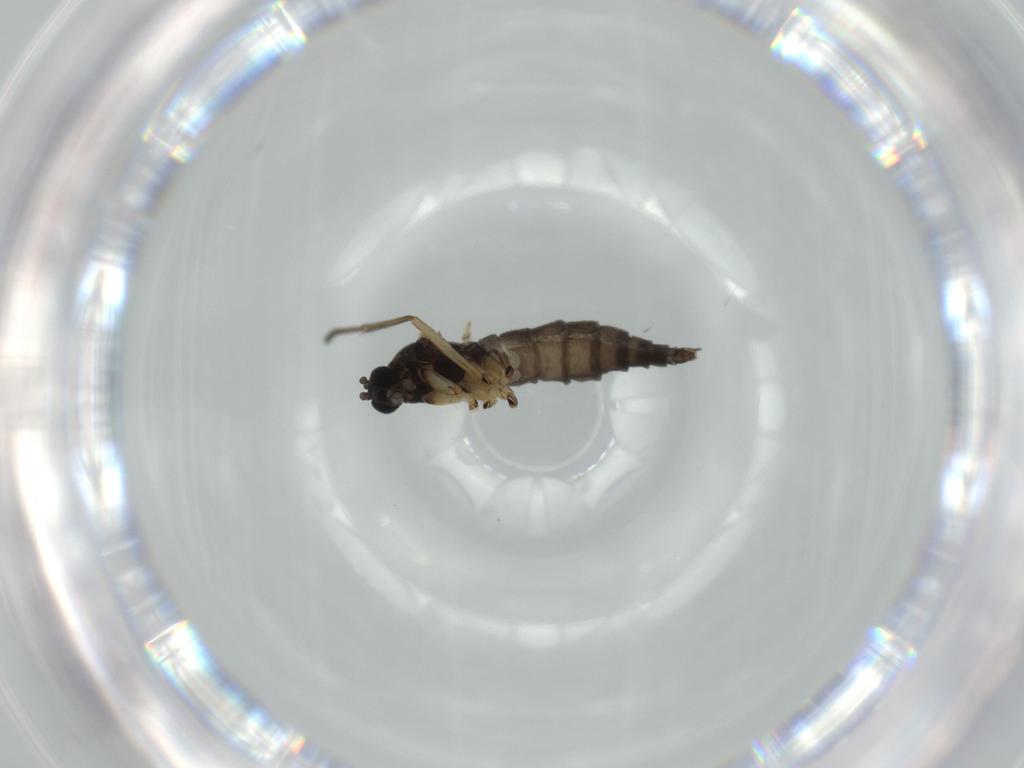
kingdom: Animalia
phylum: Arthropoda
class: Insecta
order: Diptera
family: Sciaridae
